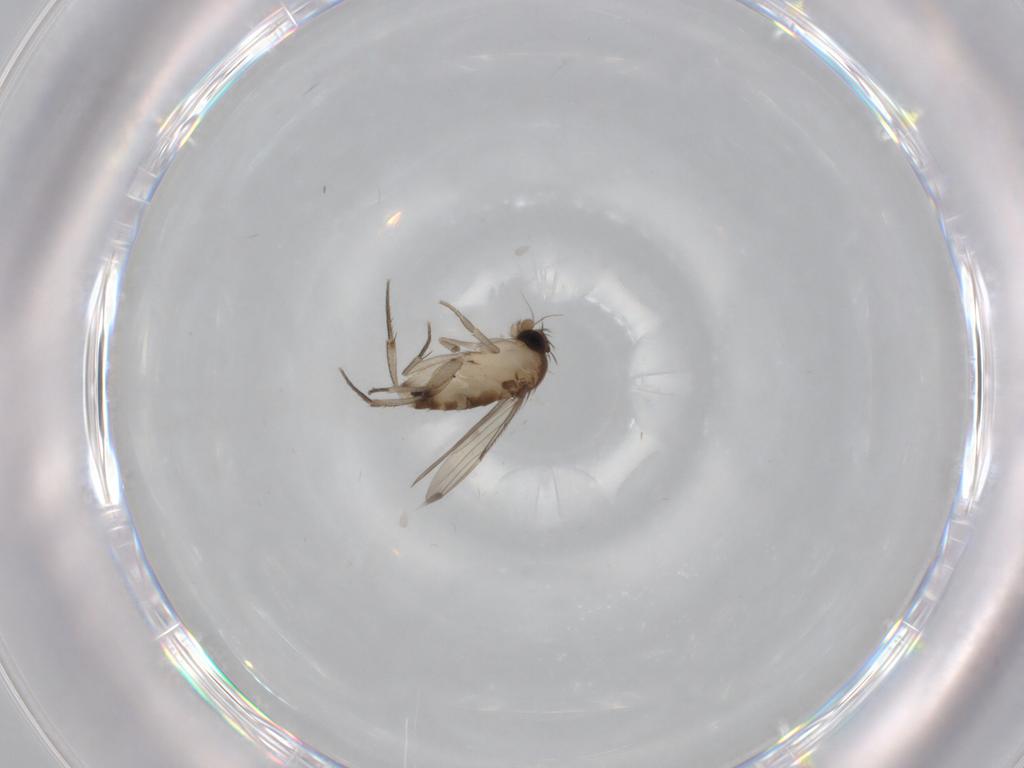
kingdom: Animalia
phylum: Arthropoda
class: Insecta
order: Diptera
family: Phoridae
